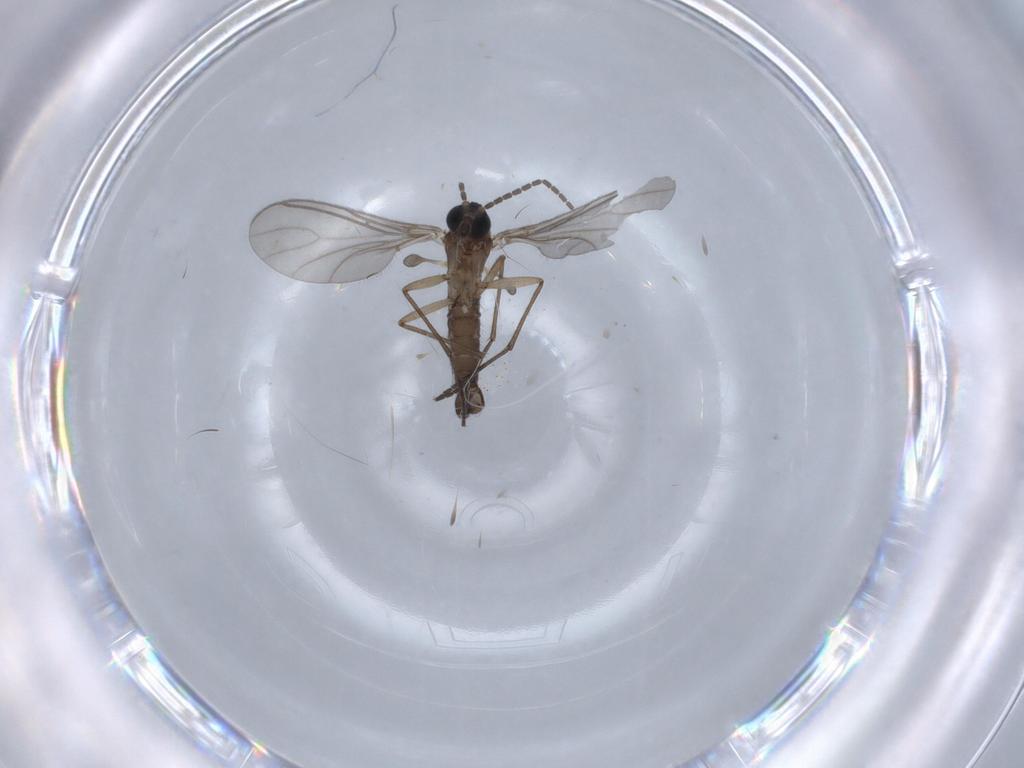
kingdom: Animalia
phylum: Arthropoda
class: Insecta
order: Diptera
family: Sciaridae
